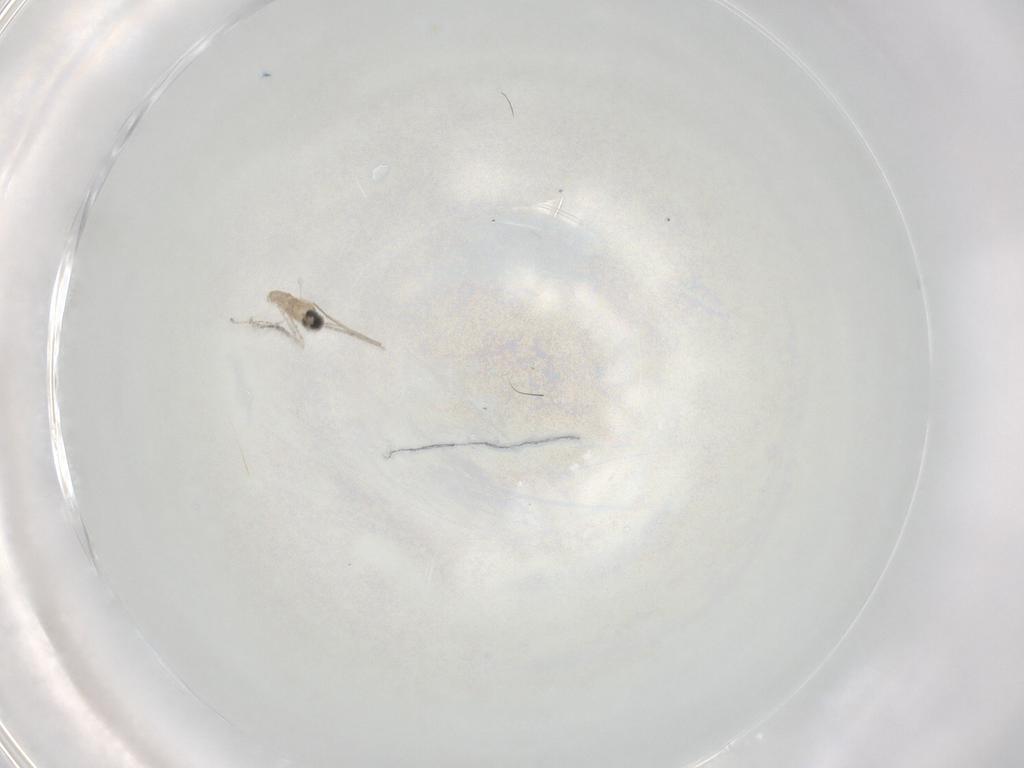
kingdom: Animalia
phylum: Arthropoda
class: Insecta
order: Diptera
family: Cecidomyiidae
